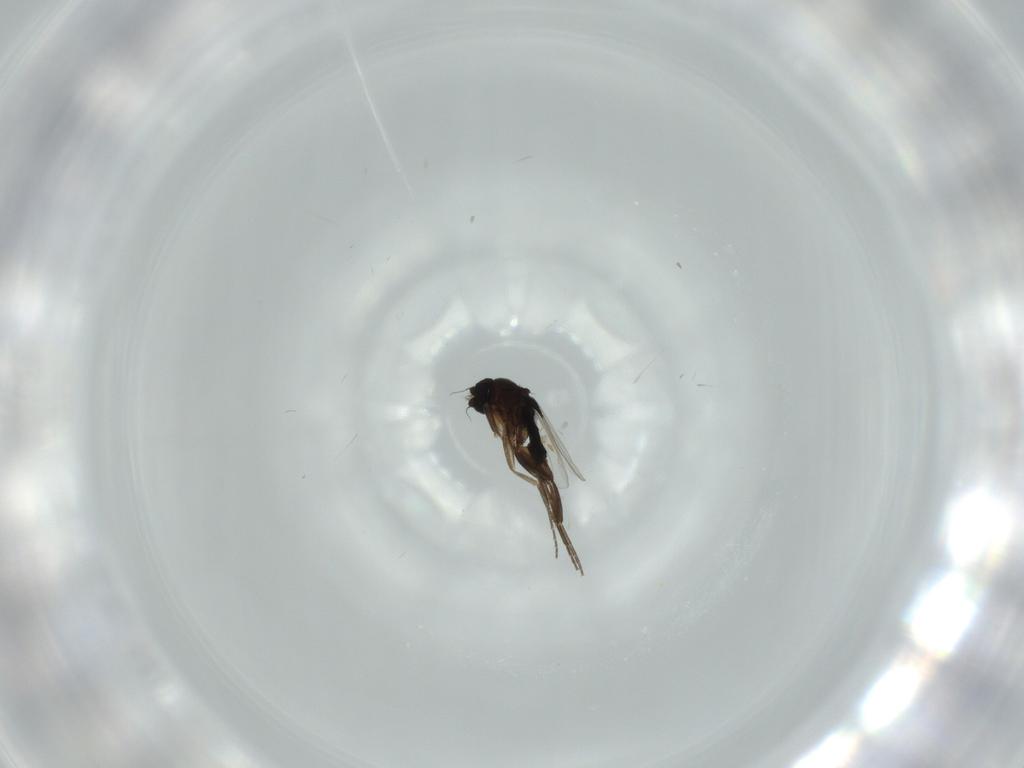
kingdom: Animalia
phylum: Arthropoda
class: Insecta
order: Diptera
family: Phoridae
